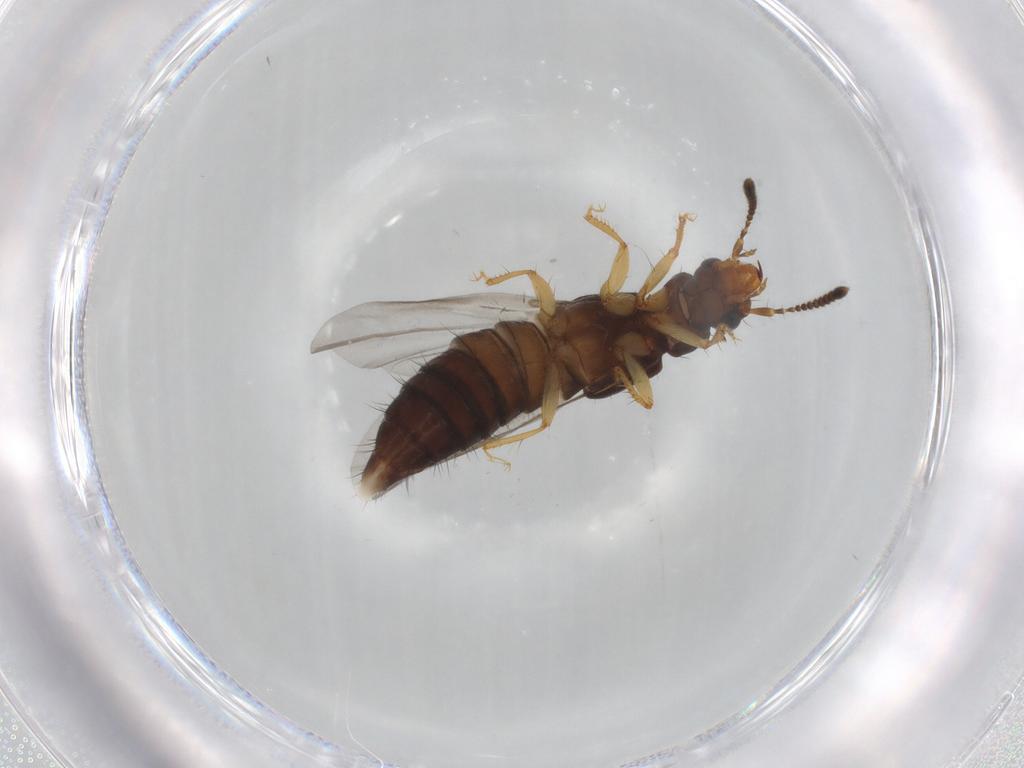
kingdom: Animalia
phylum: Arthropoda
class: Insecta
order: Coleoptera
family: Staphylinidae
